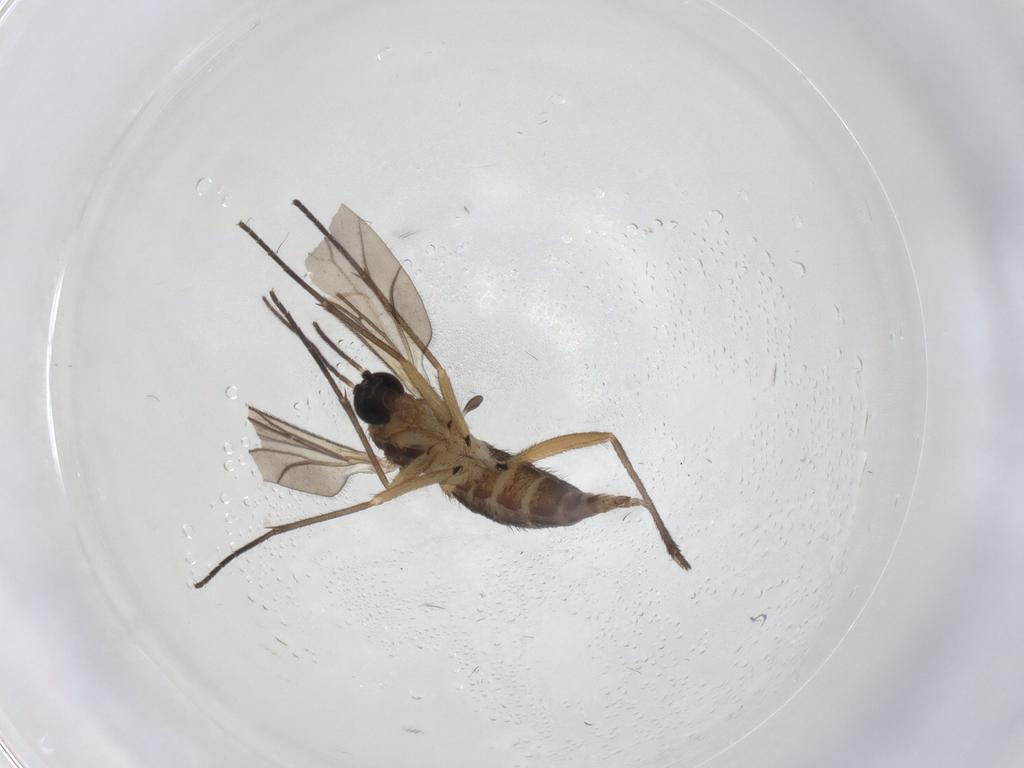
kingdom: Animalia
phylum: Arthropoda
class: Insecta
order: Diptera
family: Sciaridae
